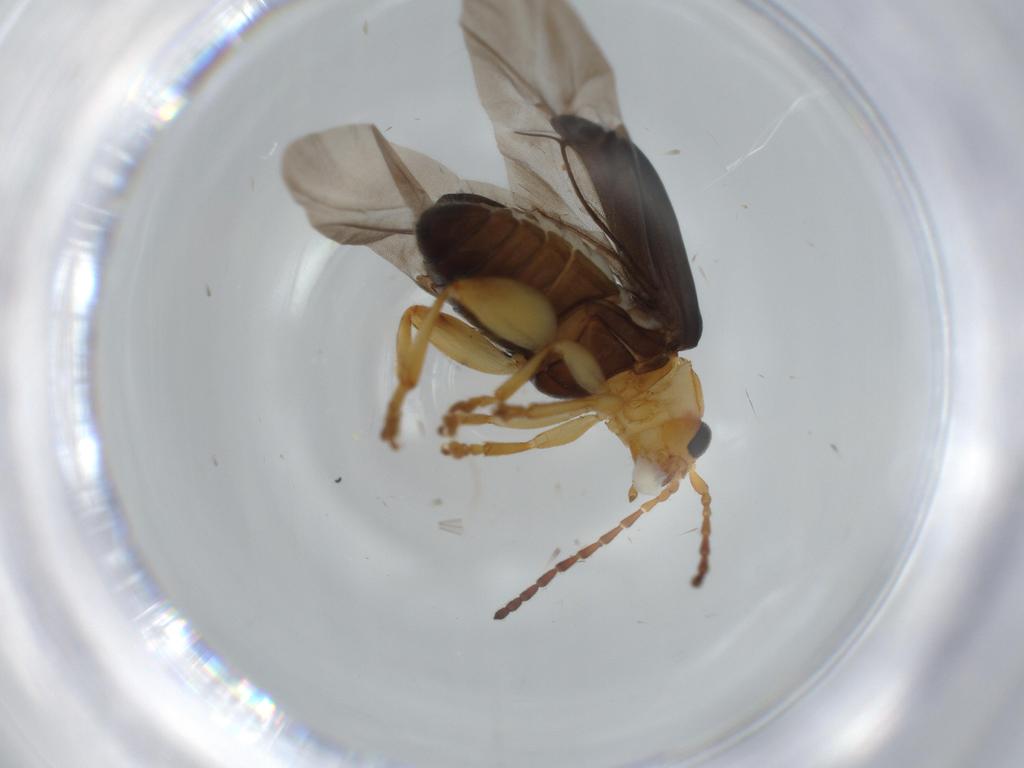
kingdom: Animalia
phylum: Arthropoda
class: Insecta
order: Coleoptera
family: Chrysomelidae
